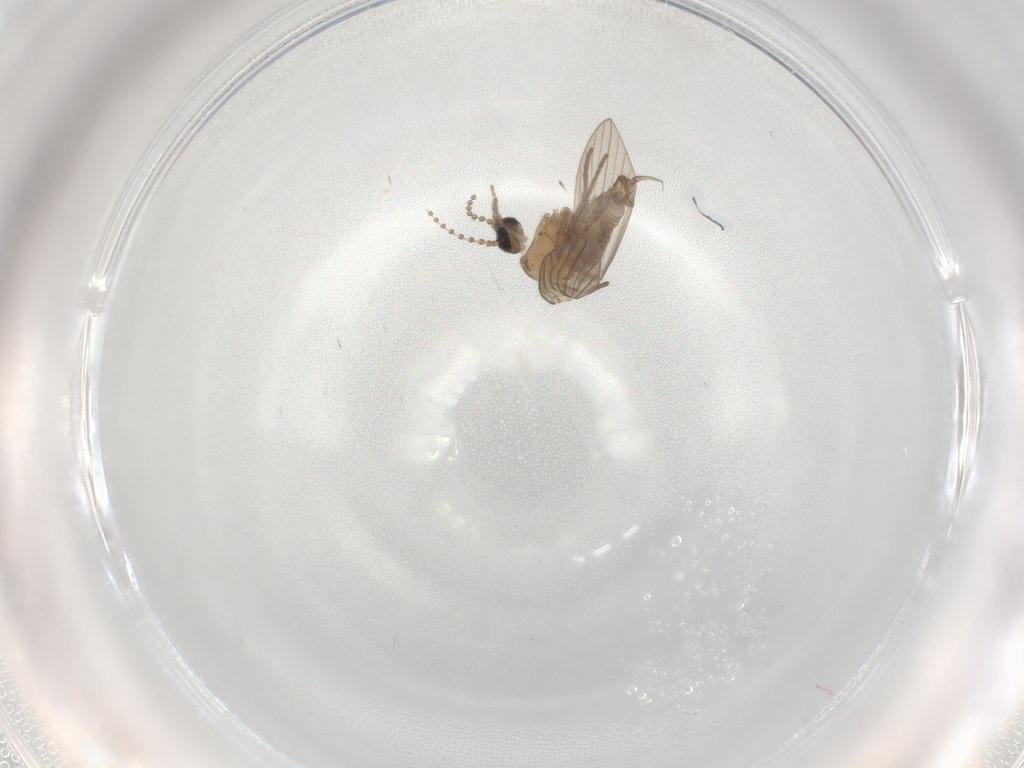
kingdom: Animalia
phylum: Arthropoda
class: Insecta
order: Diptera
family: Psychodidae
